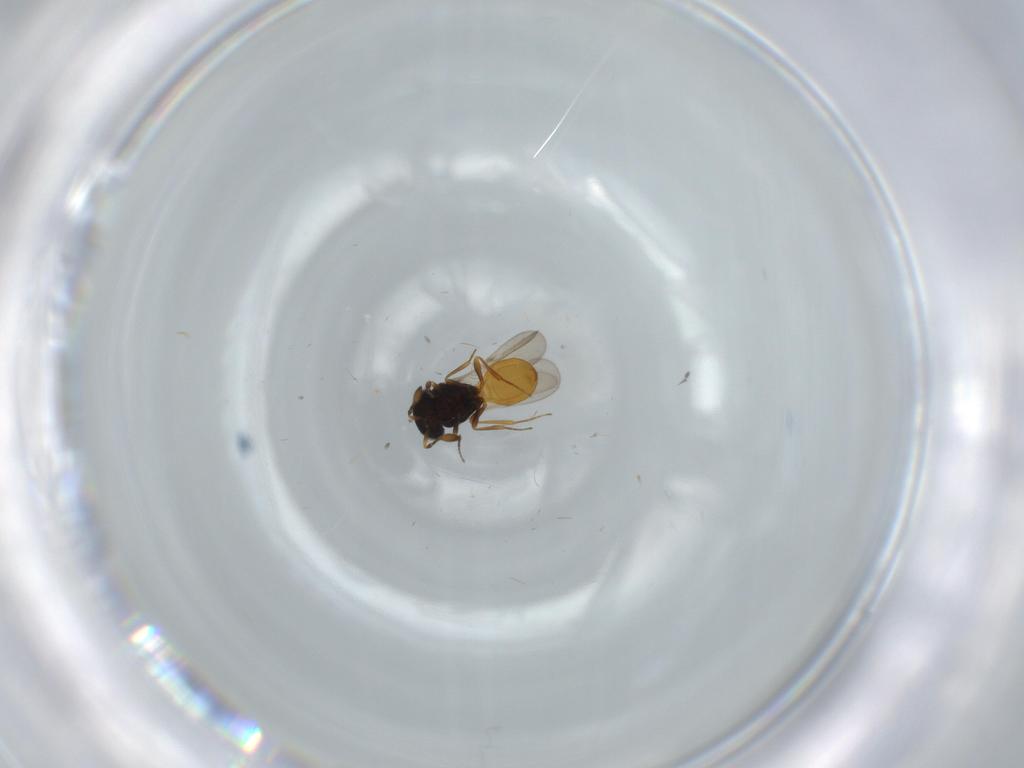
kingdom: Animalia
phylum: Arthropoda
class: Insecta
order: Hymenoptera
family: Scelionidae
